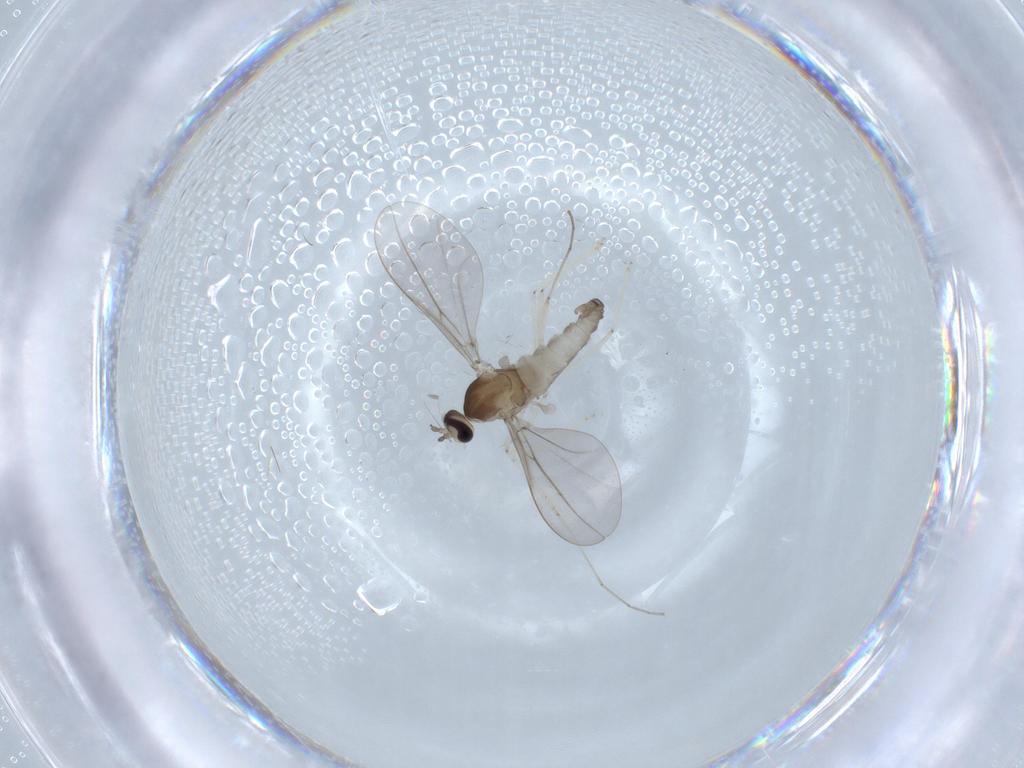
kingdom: Animalia
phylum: Arthropoda
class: Insecta
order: Diptera
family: Cecidomyiidae
